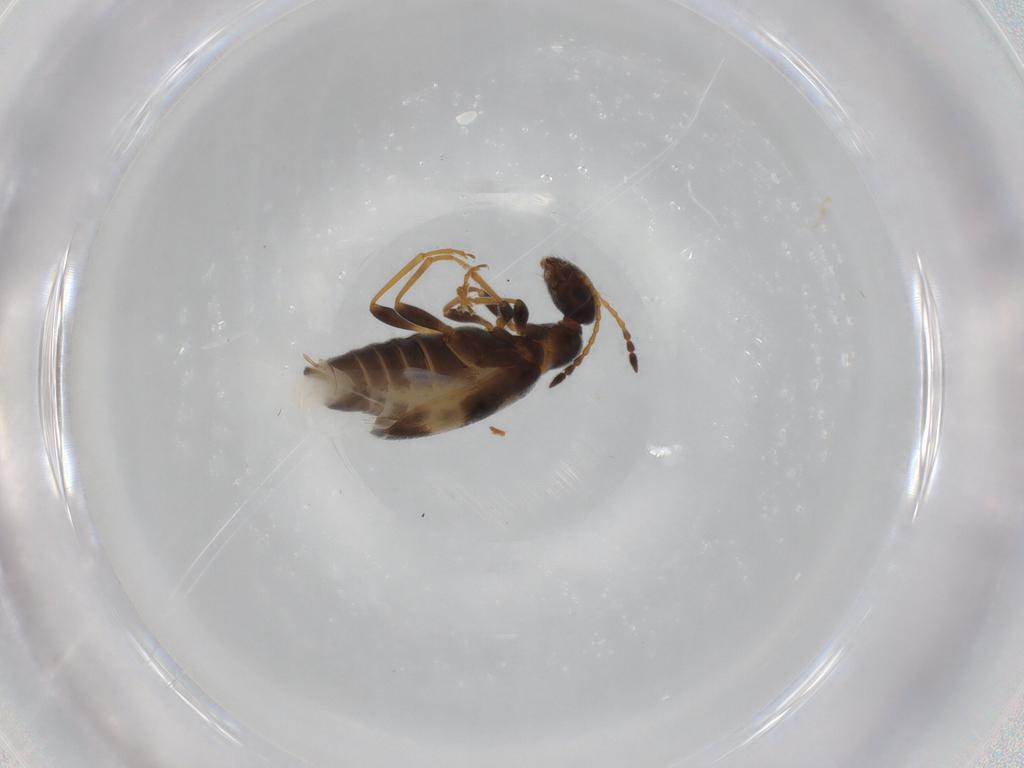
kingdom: Animalia
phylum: Arthropoda
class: Insecta
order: Coleoptera
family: Anthicidae
